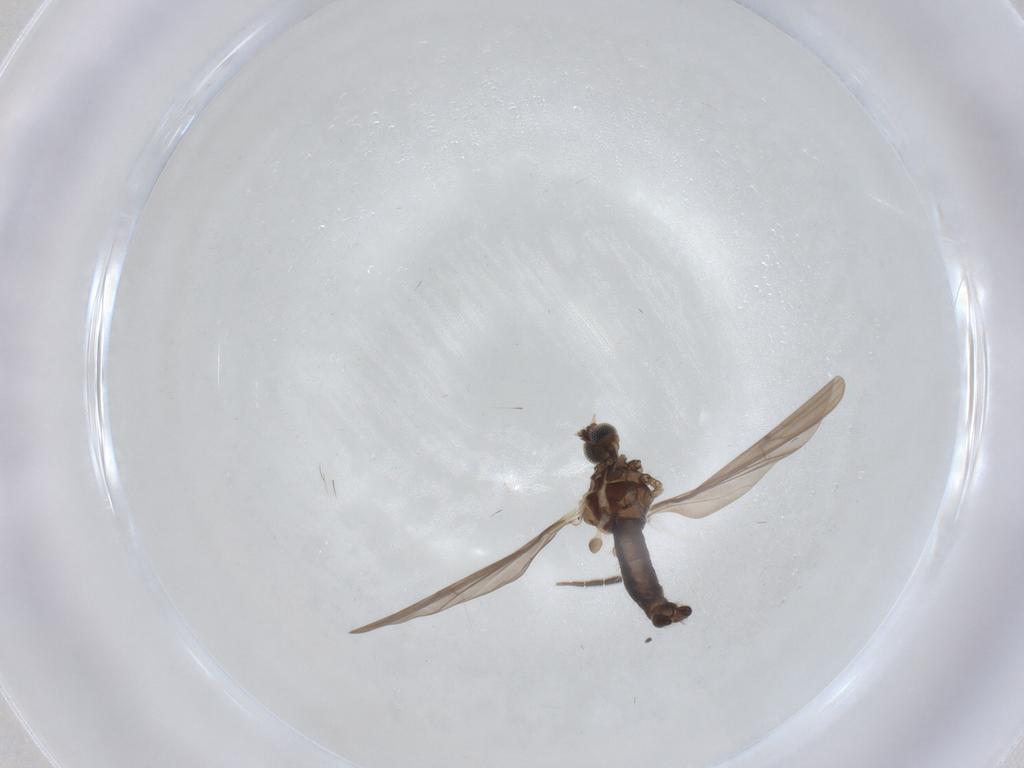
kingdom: Animalia
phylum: Arthropoda
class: Insecta
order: Diptera
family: Limoniidae
